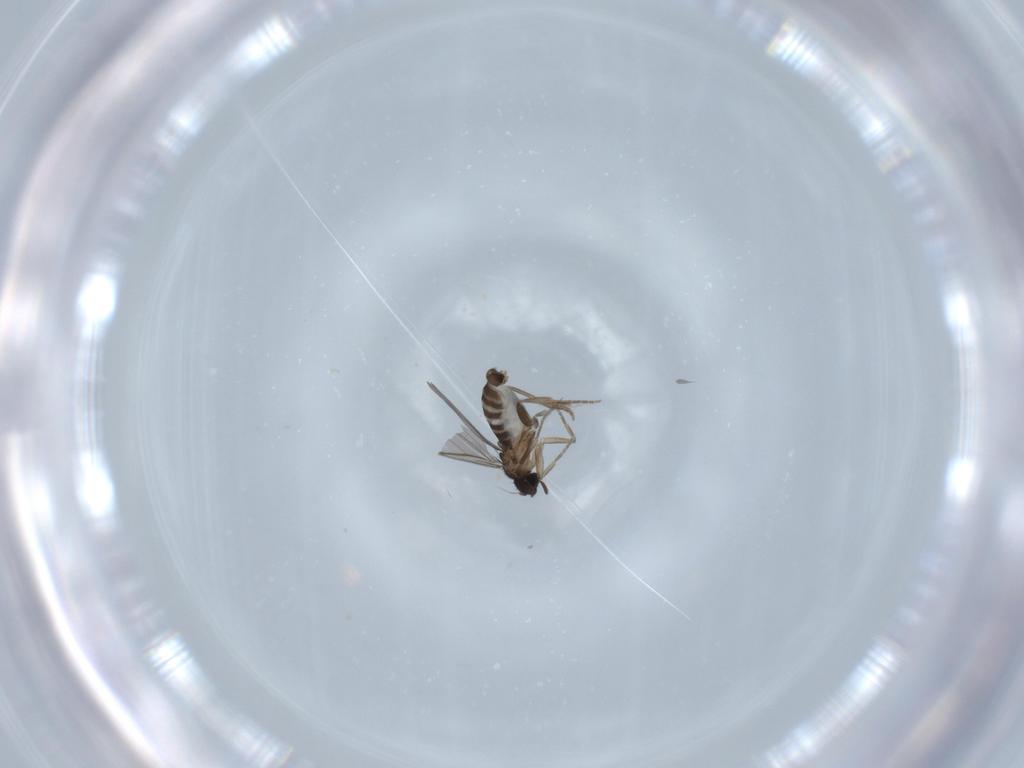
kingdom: Animalia
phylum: Arthropoda
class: Insecta
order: Diptera
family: Phoridae
